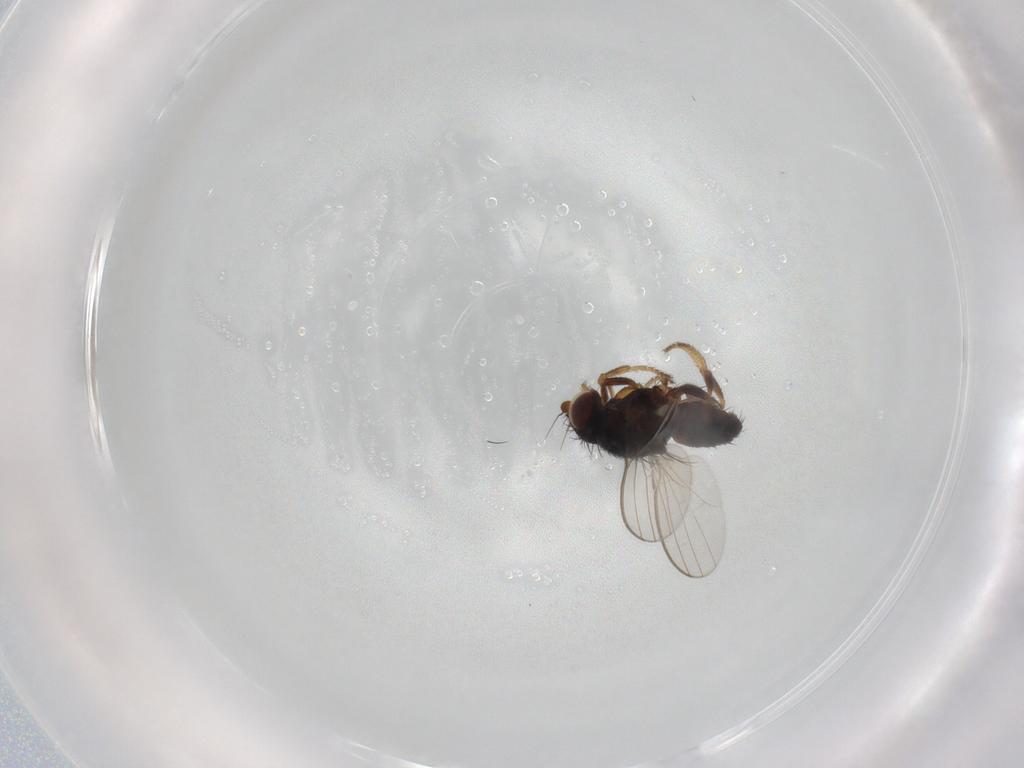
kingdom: Animalia
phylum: Arthropoda
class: Insecta
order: Diptera
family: Milichiidae
